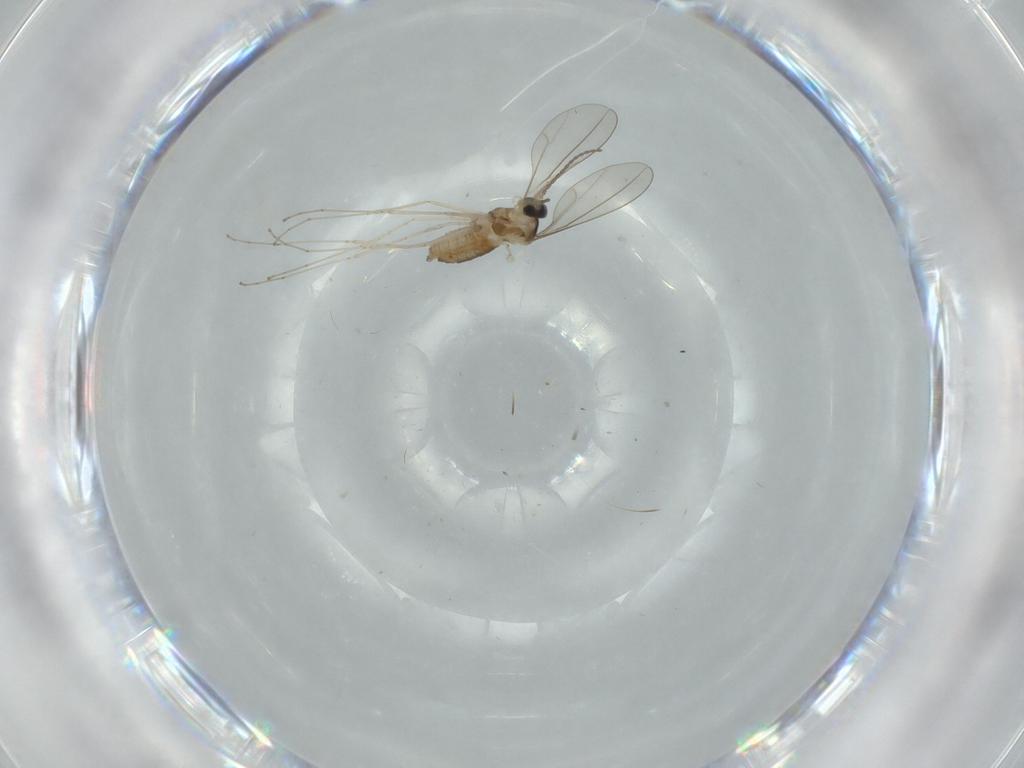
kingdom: Animalia
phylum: Arthropoda
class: Insecta
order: Diptera
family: Cecidomyiidae
